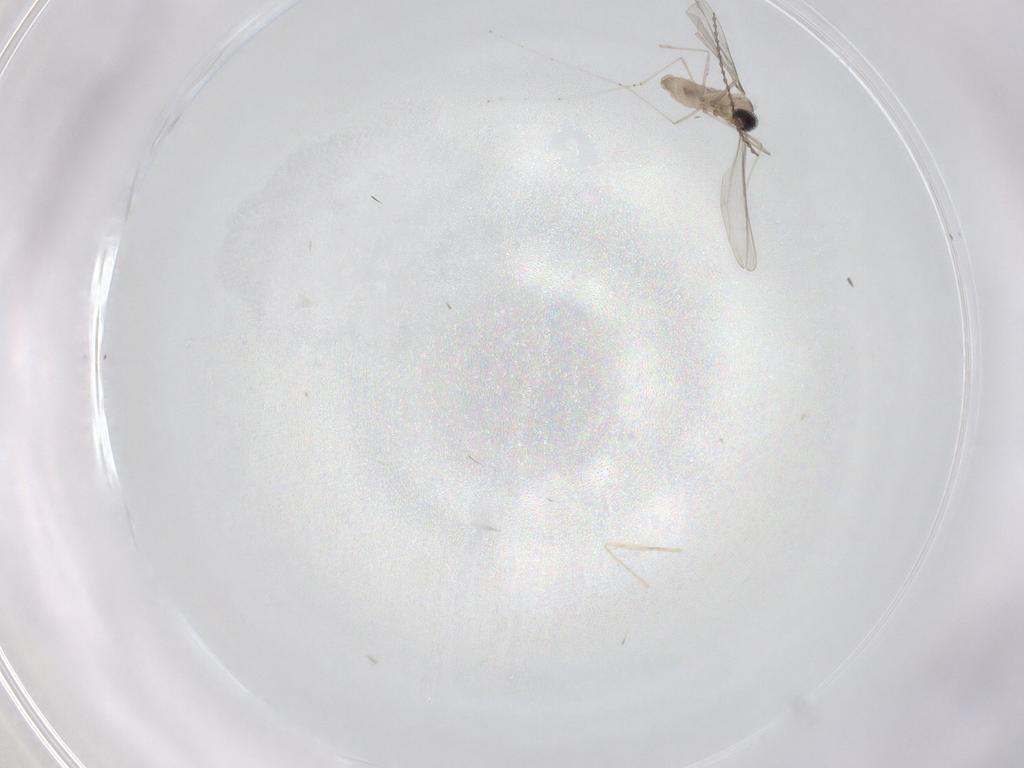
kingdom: Animalia
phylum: Arthropoda
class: Insecta
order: Diptera
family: Cecidomyiidae
